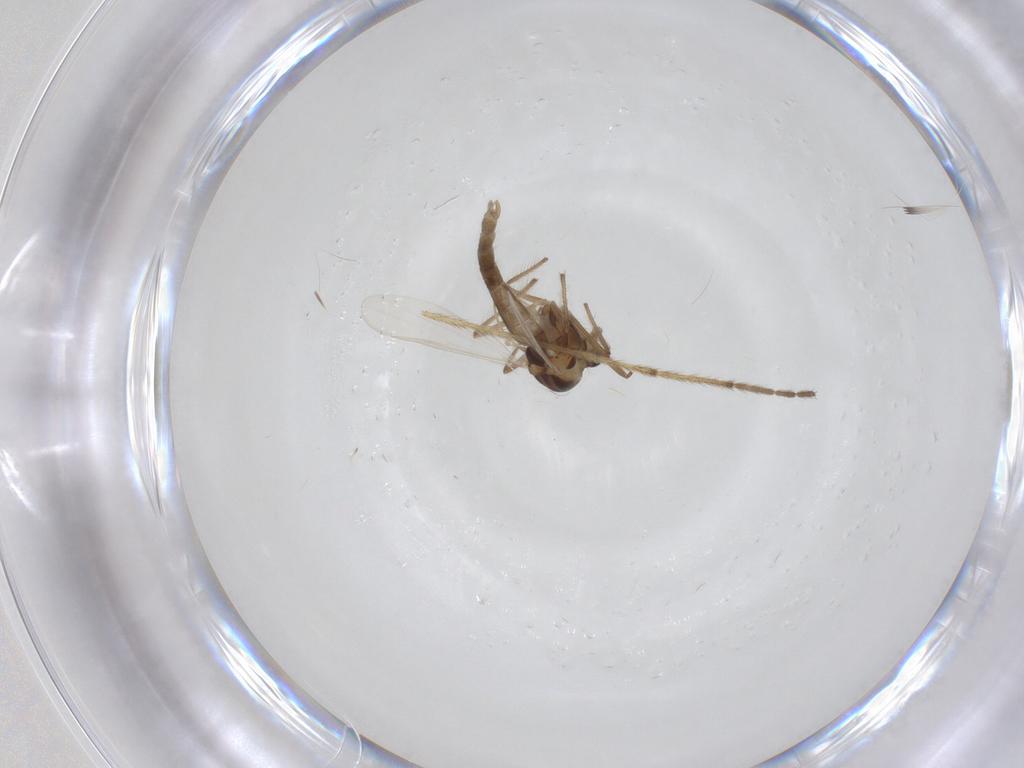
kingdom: Animalia
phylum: Arthropoda
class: Insecta
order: Diptera
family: Chironomidae
